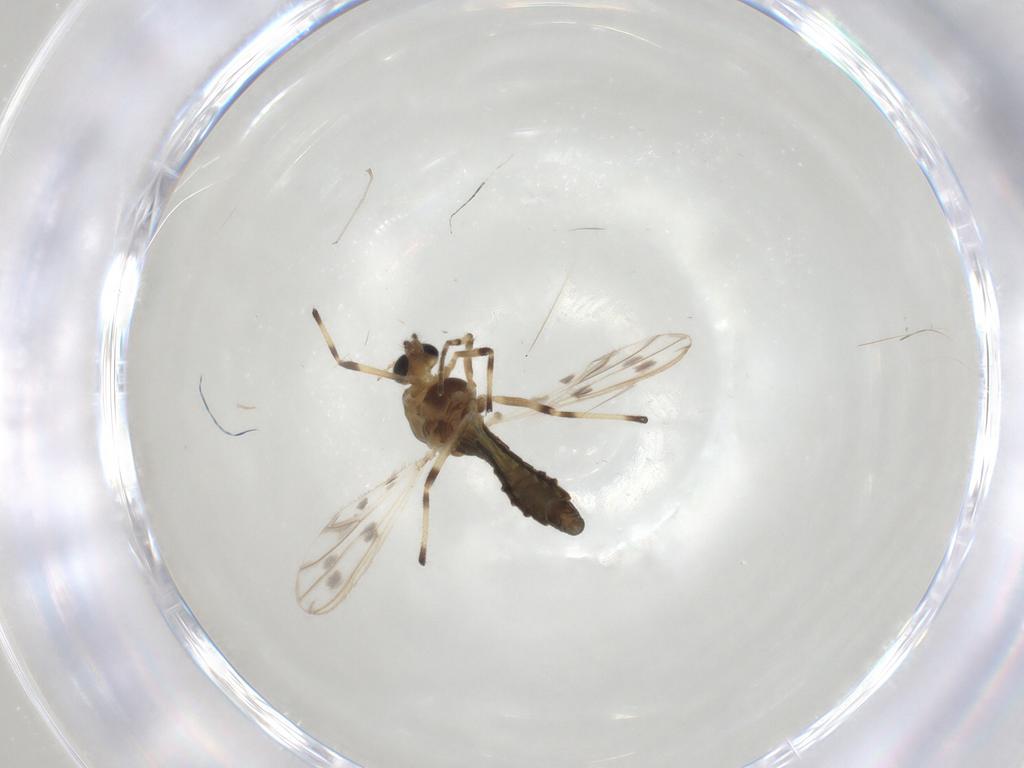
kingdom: Animalia
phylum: Arthropoda
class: Insecta
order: Diptera
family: Chironomidae
